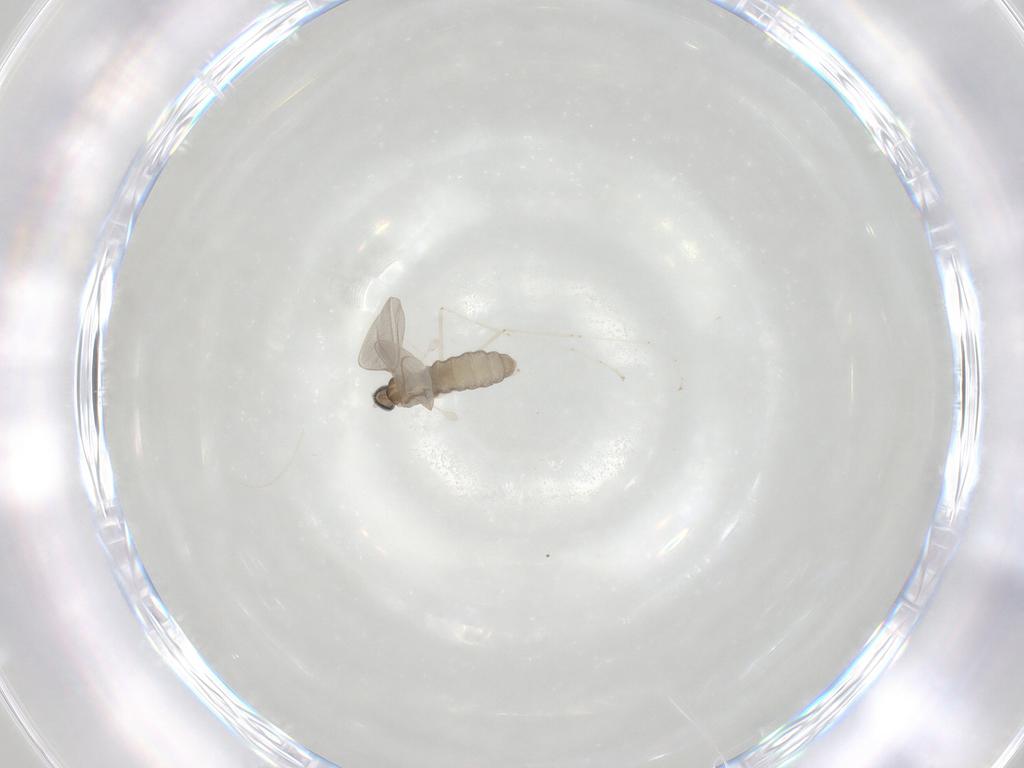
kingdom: Animalia
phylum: Arthropoda
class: Insecta
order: Diptera
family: Cecidomyiidae
